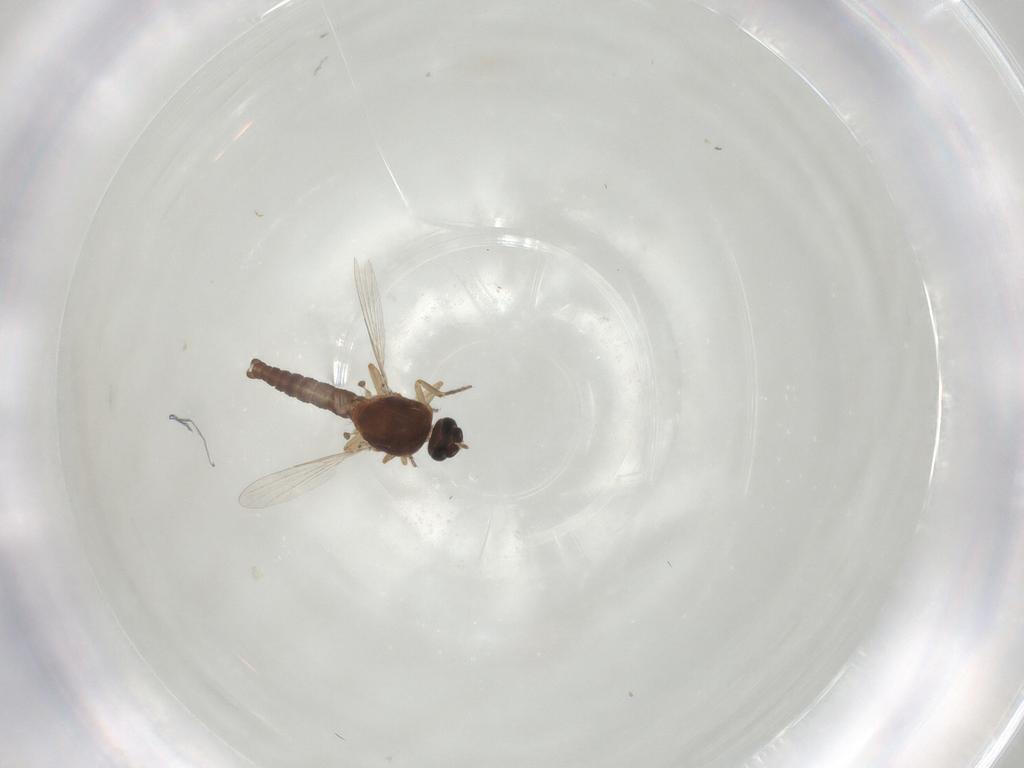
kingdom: Animalia
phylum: Arthropoda
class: Insecta
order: Diptera
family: Ceratopogonidae
